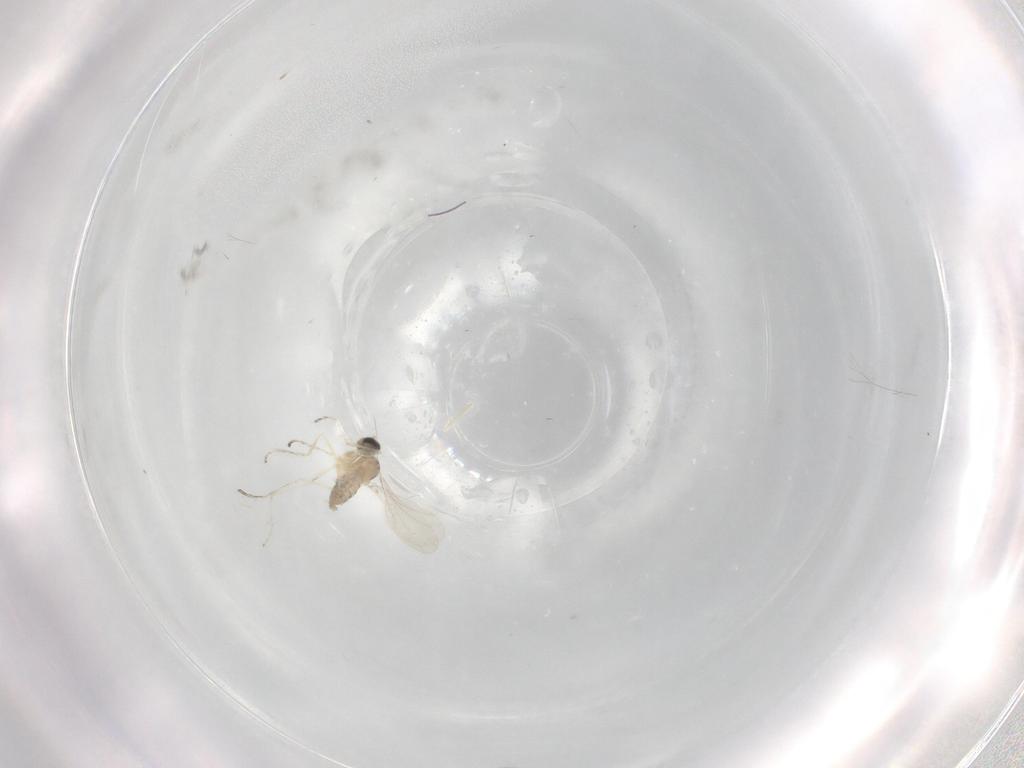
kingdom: Animalia
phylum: Arthropoda
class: Insecta
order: Diptera
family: Cecidomyiidae
